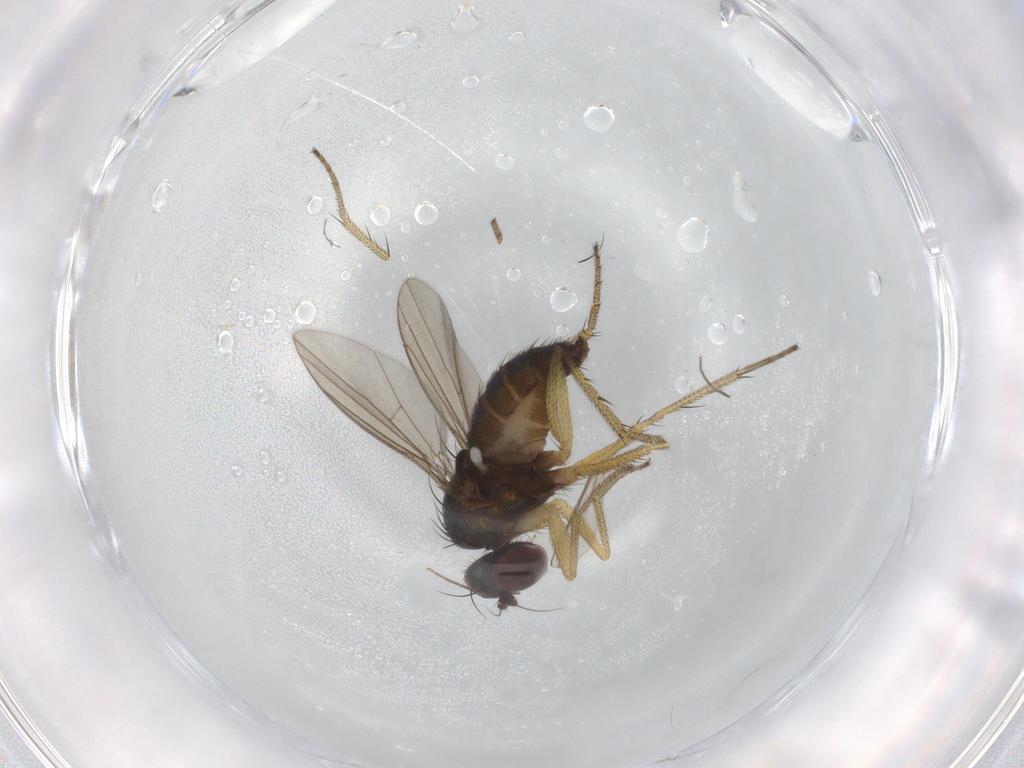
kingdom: Animalia
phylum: Arthropoda
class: Insecta
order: Diptera
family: Dolichopodidae
